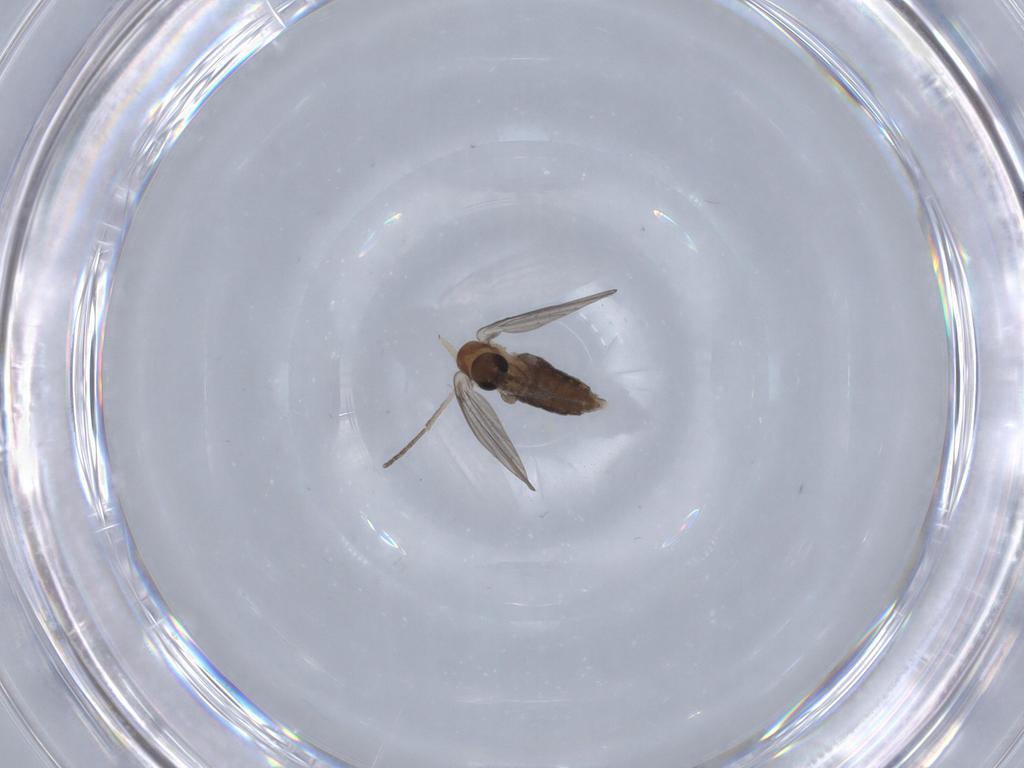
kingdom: Animalia
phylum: Arthropoda
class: Insecta
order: Diptera
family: Psychodidae
